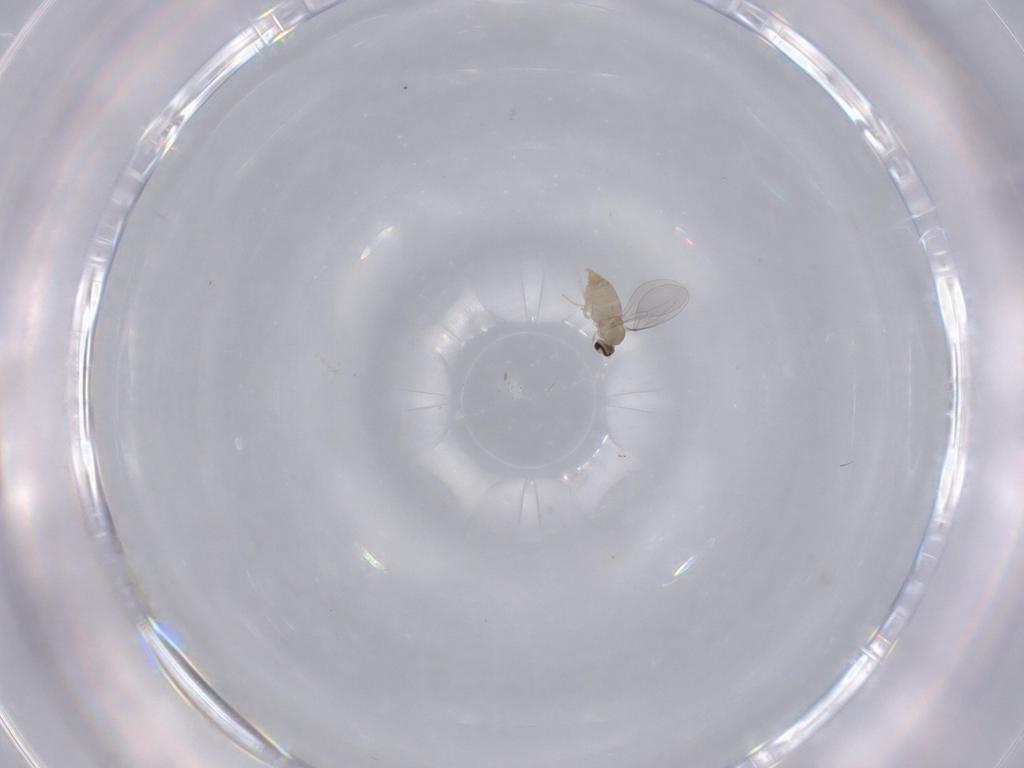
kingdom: Animalia
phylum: Arthropoda
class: Insecta
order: Diptera
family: Cecidomyiidae
